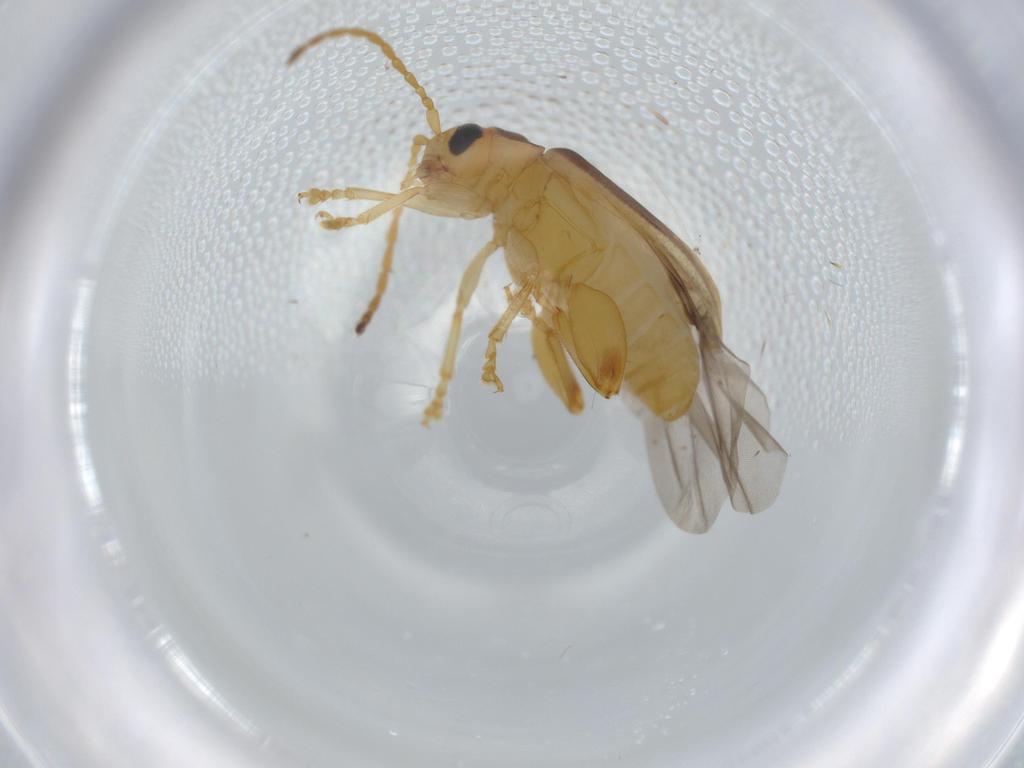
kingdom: Animalia
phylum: Arthropoda
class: Insecta
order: Coleoptera
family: Chrysomelidae
